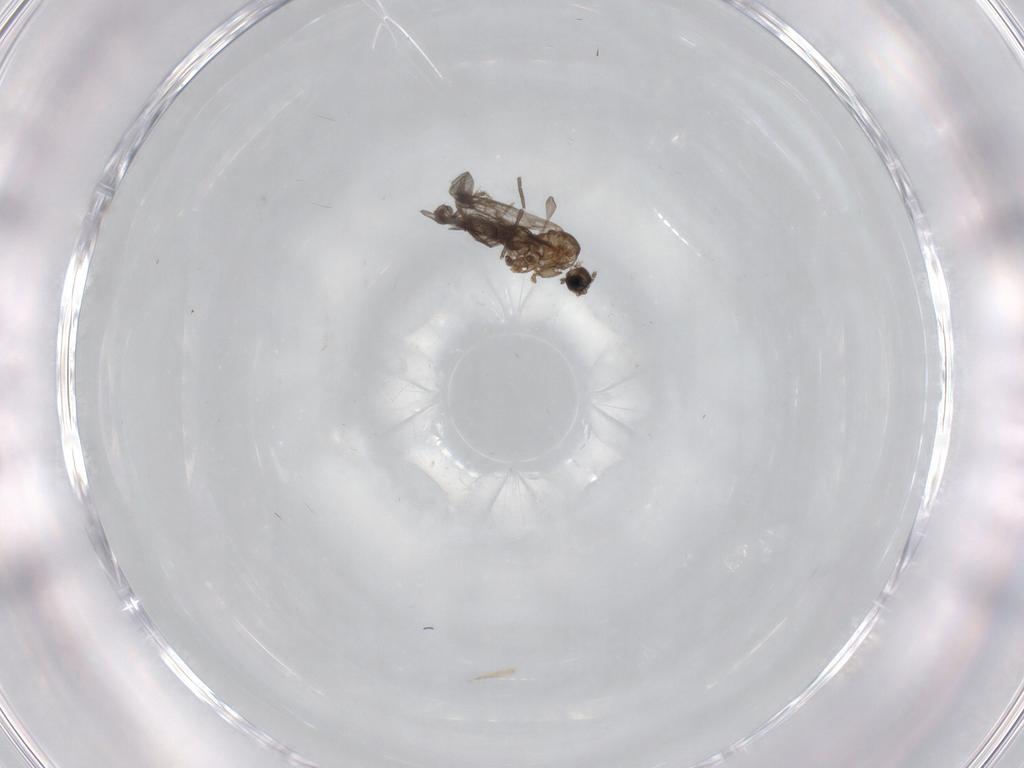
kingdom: Animalia
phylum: Arthropoda
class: Insecta
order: Diptera
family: Sciaridae
